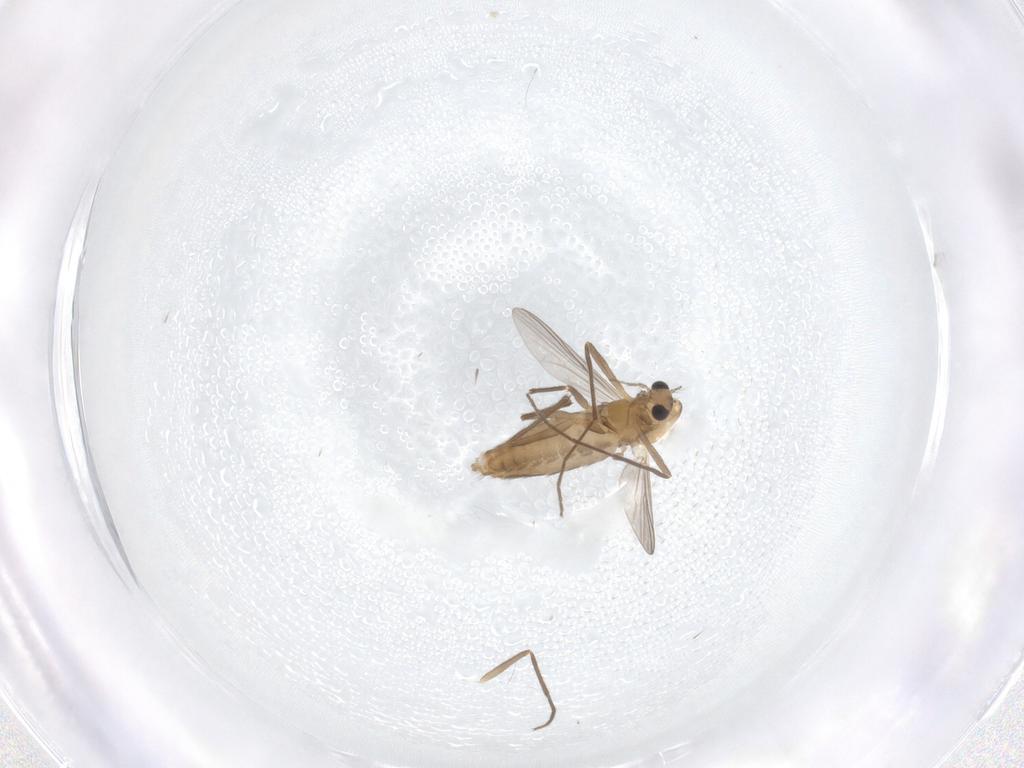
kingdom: Animalia
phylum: Arthropoda
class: Insecta
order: Diptera
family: Chironomidae
